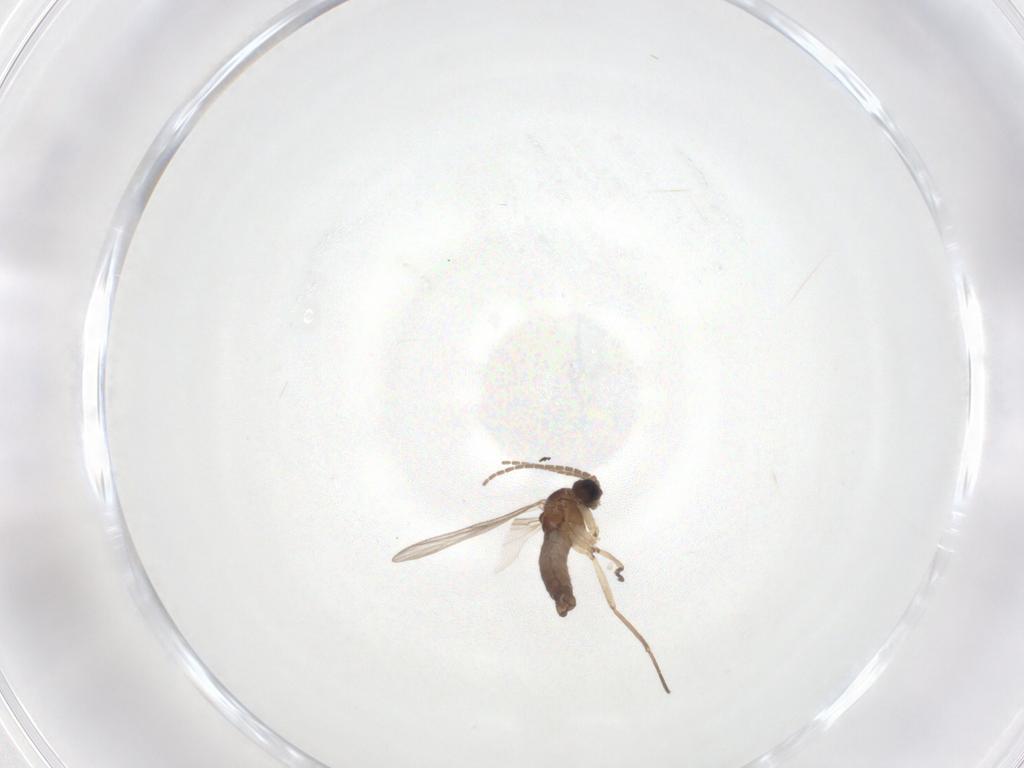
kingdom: Animalia
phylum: Arthropoda
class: Insecta
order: Diptera
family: Sciaridae
